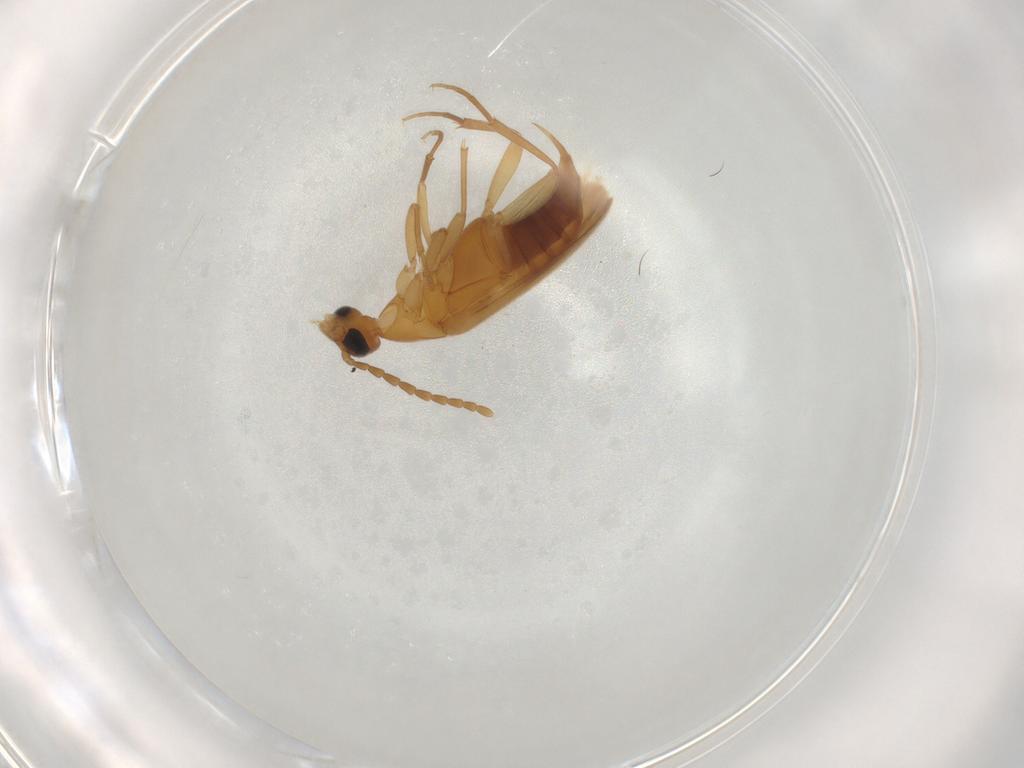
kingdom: Animalia
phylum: Arthropoda
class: Insecta
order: Coleoptera
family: Scraptiidae
